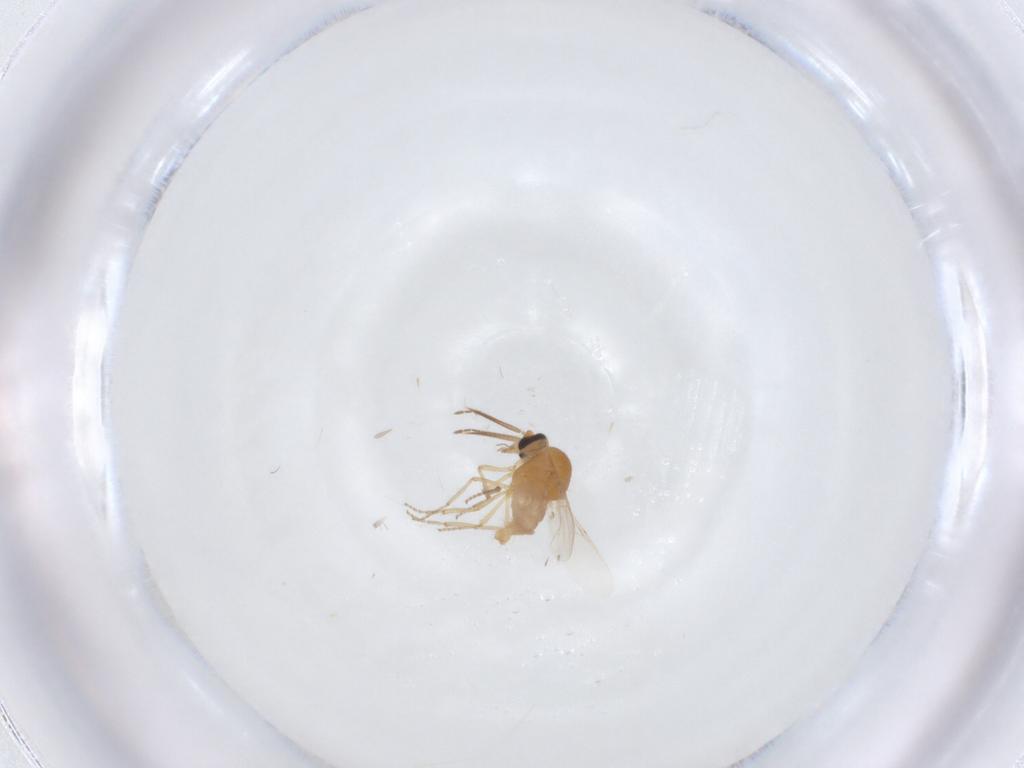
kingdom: Animalia
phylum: Arthropoda
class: Insecta
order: Diptera
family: Ceratopogonidae
